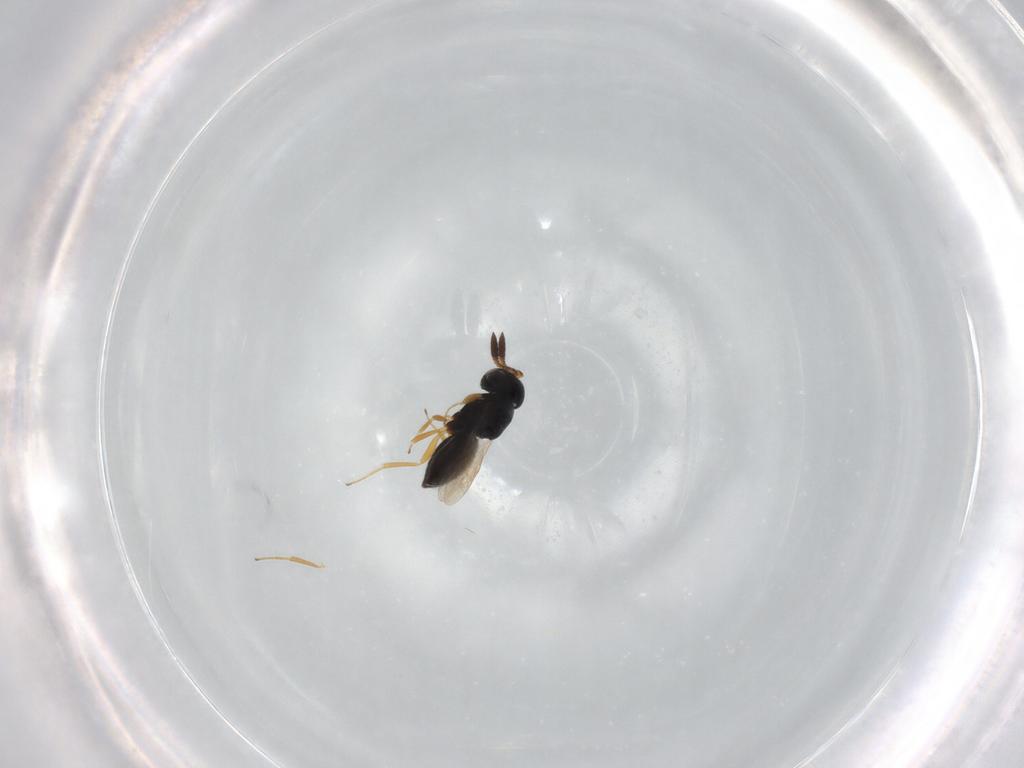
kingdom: Animalia
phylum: Arthropoda
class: Insecta
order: Hymenoptera
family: Scelionidae
